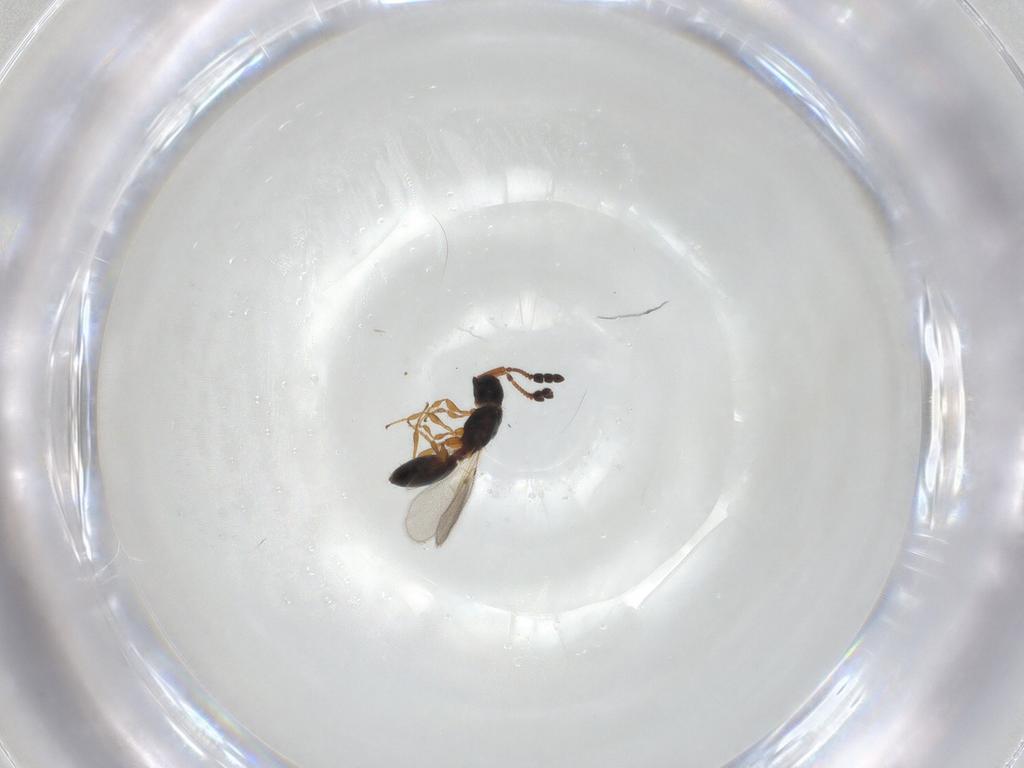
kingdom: Animalia
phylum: Arthropoda
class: Insecta
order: Hymenoptera
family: Diapriidae
